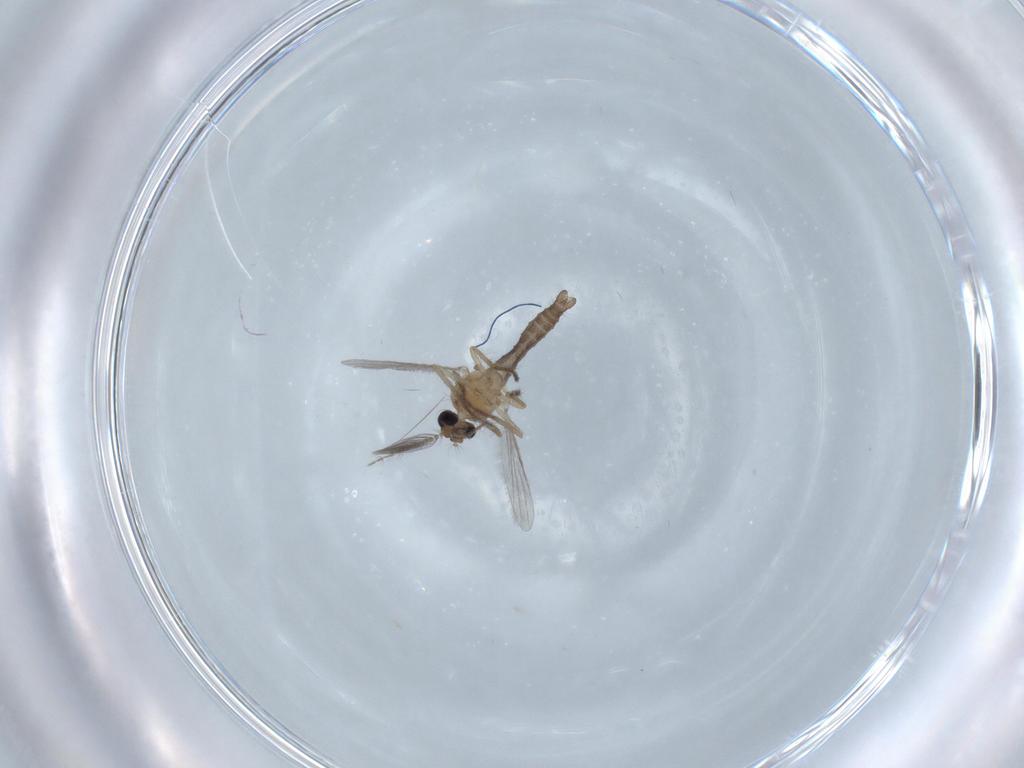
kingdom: Animalia
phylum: Arthropoda
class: Insecta
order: Diptera
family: Ceratopogonidae
